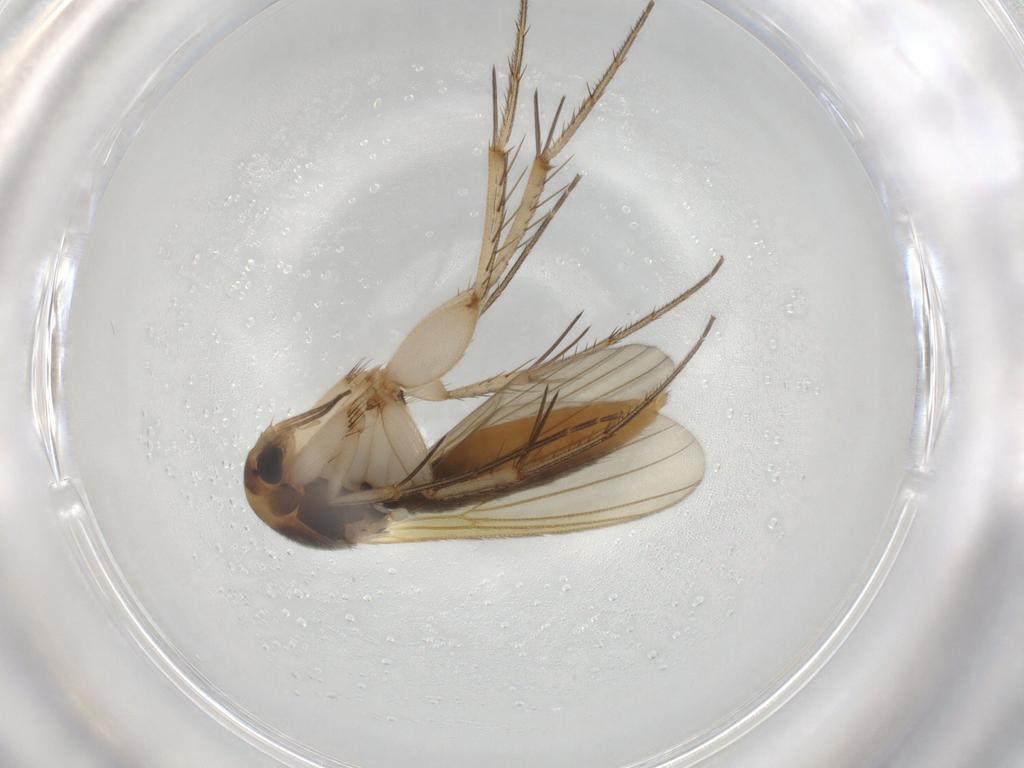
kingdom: Animalia
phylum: Arthropoda
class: Insecta
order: Diptera
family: Mycetophilidae
